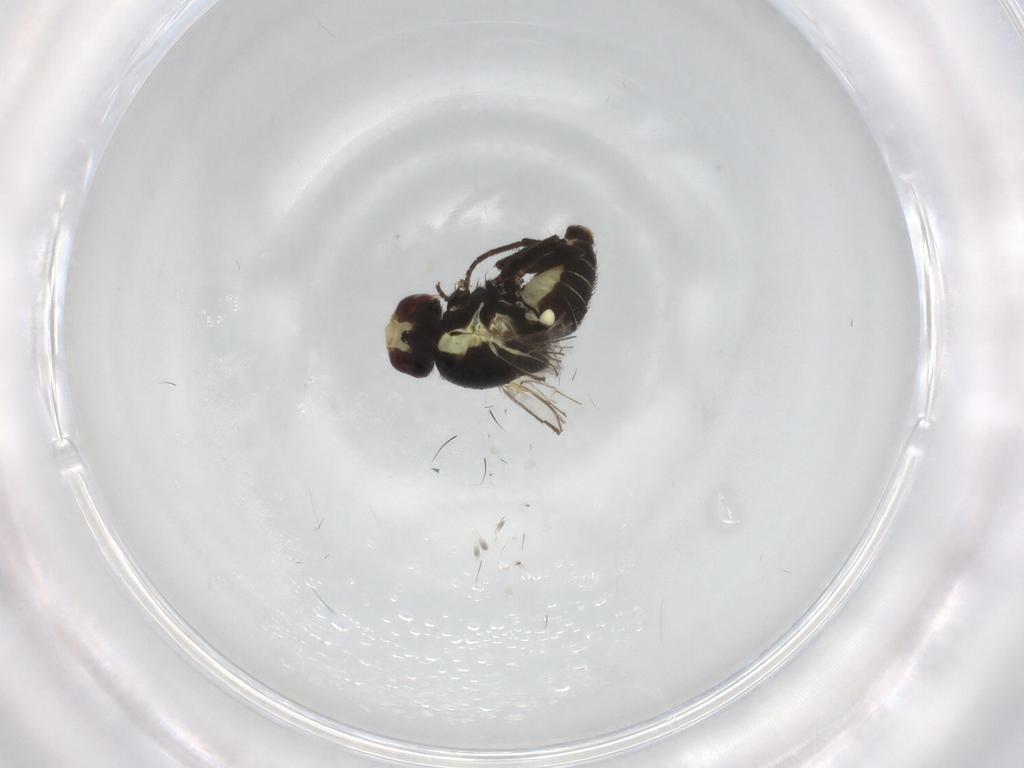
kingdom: Animalia
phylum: Arthropoda
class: Insecta
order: Diptera
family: Agromyzidae
